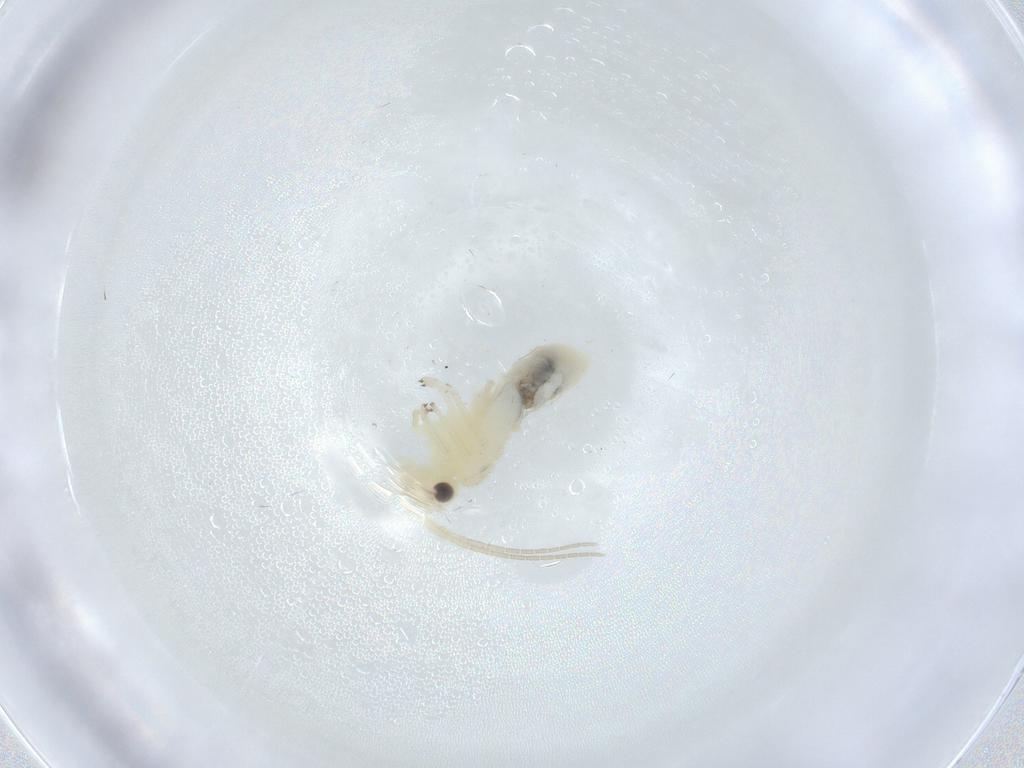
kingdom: Animalia
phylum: Arthropoda
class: Insecta
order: Psocodea
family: Caeciliusidae
